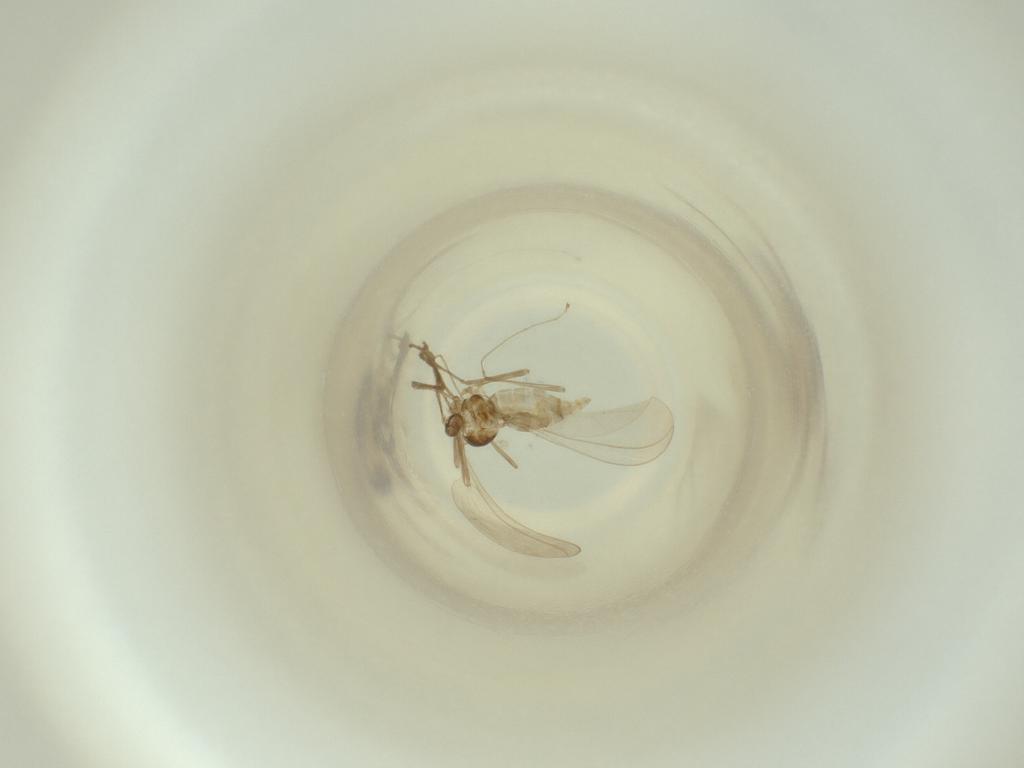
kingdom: Animalia
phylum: Arthropoda
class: Insecta
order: Diptera
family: Cecidomyiidae
